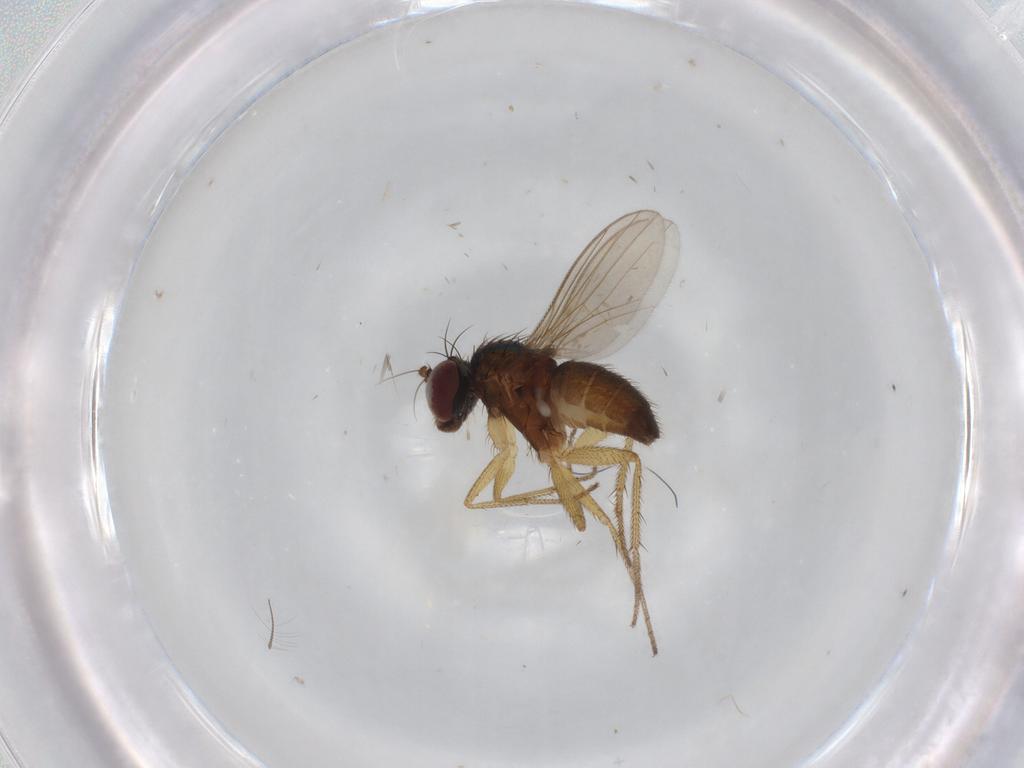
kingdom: Animalia
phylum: Arthropoda
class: Insecta
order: Diptera
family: Dolichopodidae
